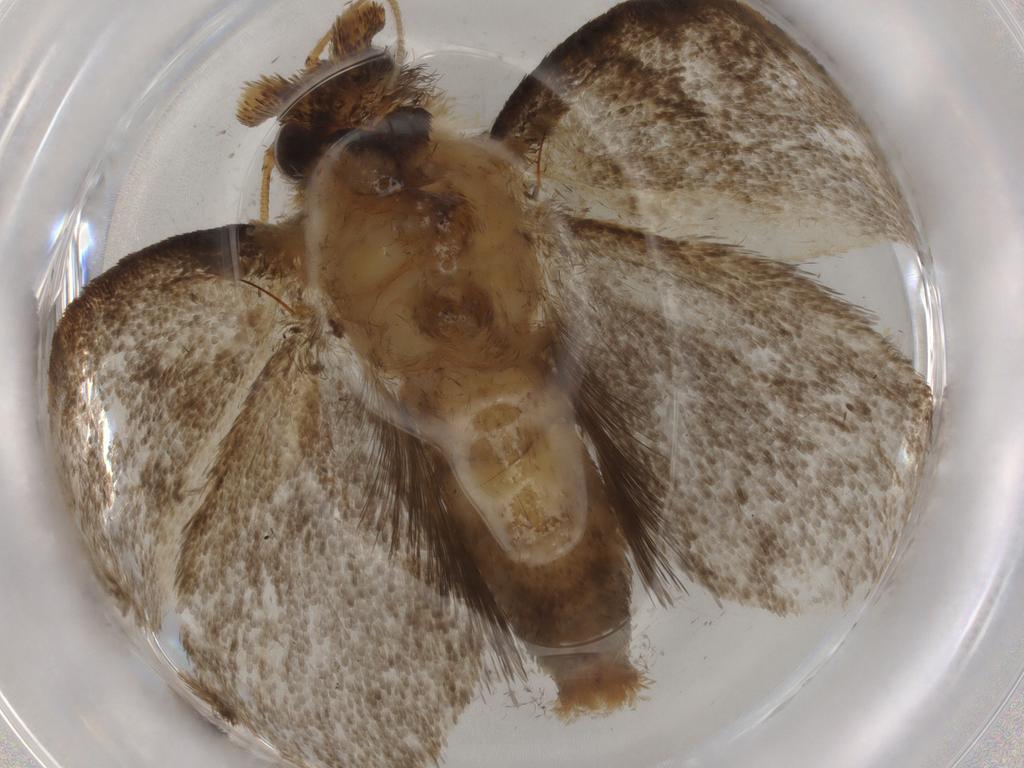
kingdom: Animalia
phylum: Arthropoda
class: Insecta
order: Lepidoptera
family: Tineidae
